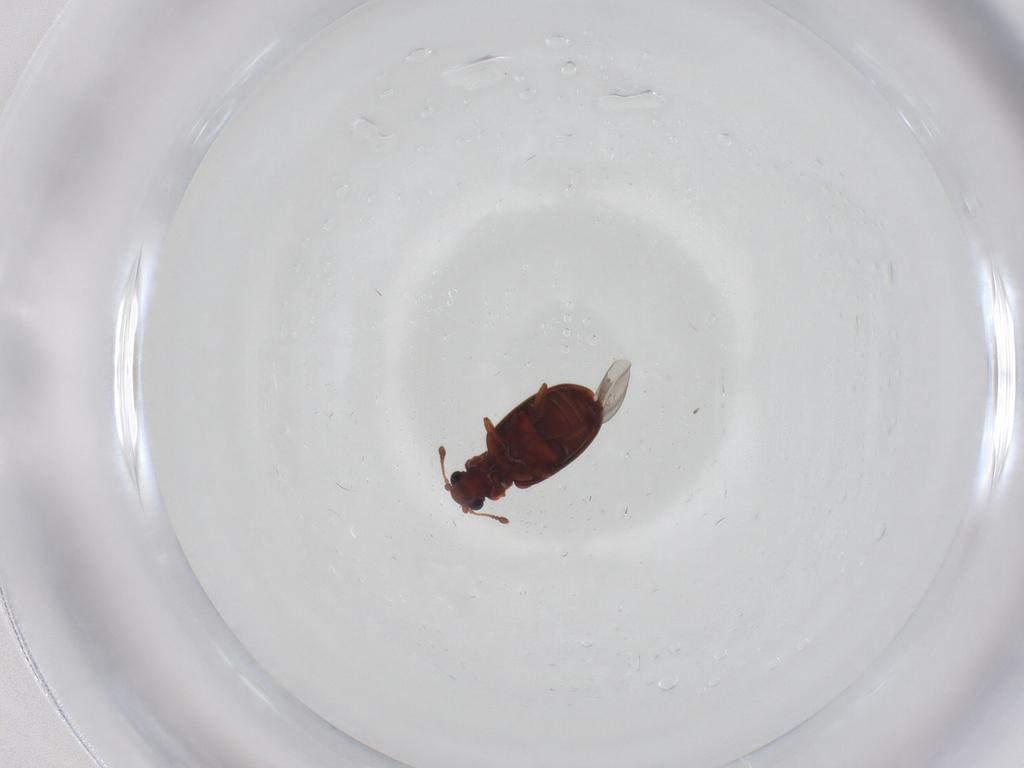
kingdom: Animalia
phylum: Arthropoda
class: Insecta
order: Coleoptera
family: Latridiidae
